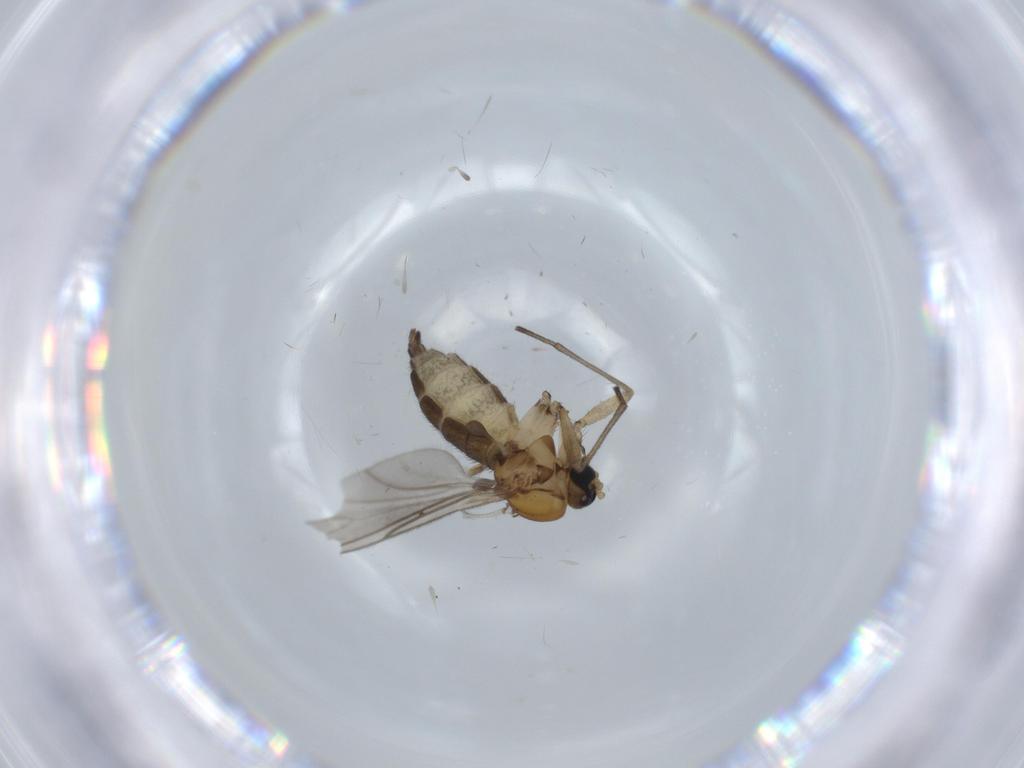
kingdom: Animalia
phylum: Arthropoda
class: Insecta
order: Diptera
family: Sciaridae
